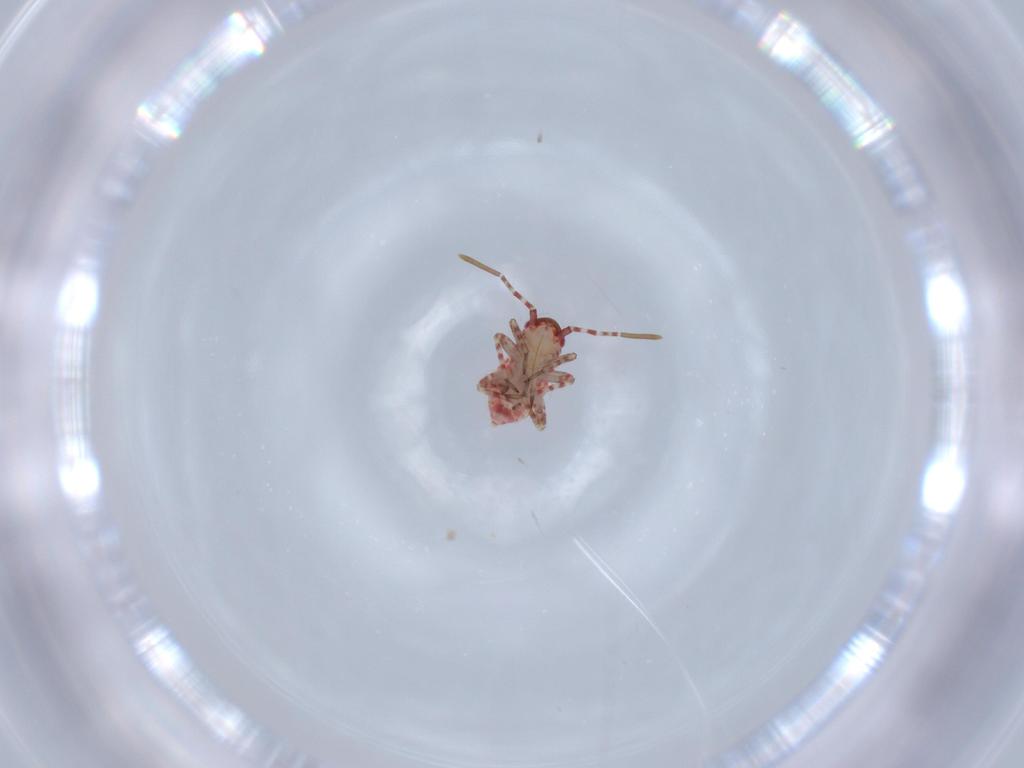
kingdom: Animalia
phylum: Arthropoda
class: Insecta
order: Hemiptera
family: Miridae
